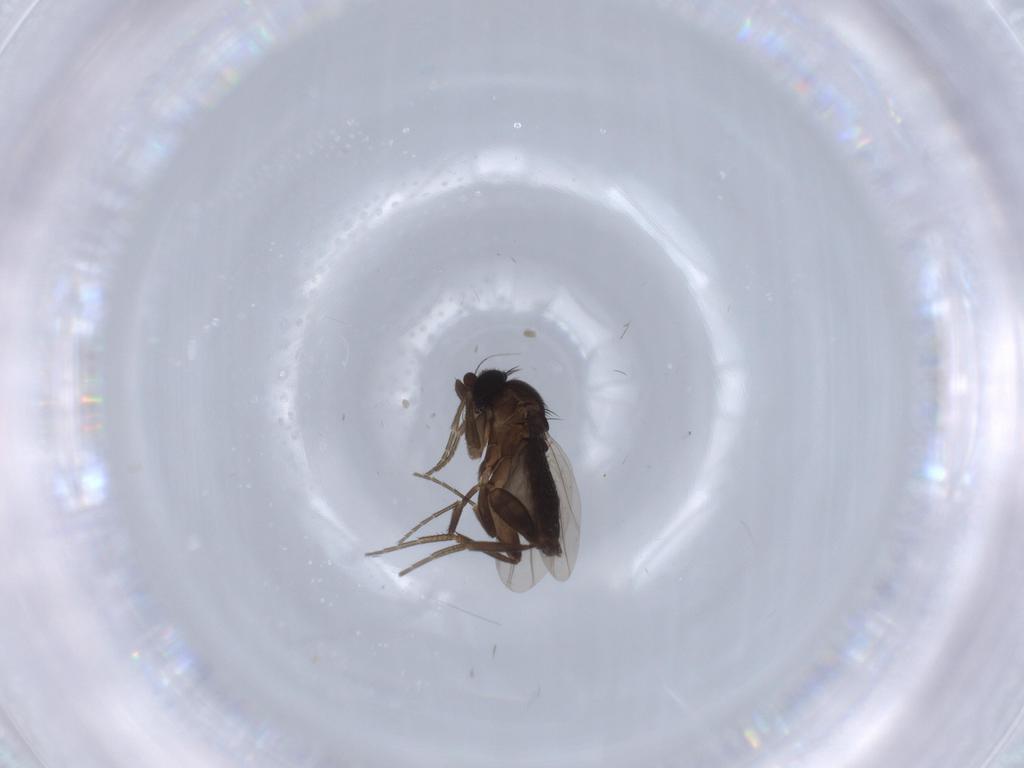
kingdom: Animalia
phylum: Arthropoda
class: Insecta
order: Diptera
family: Phoridae
